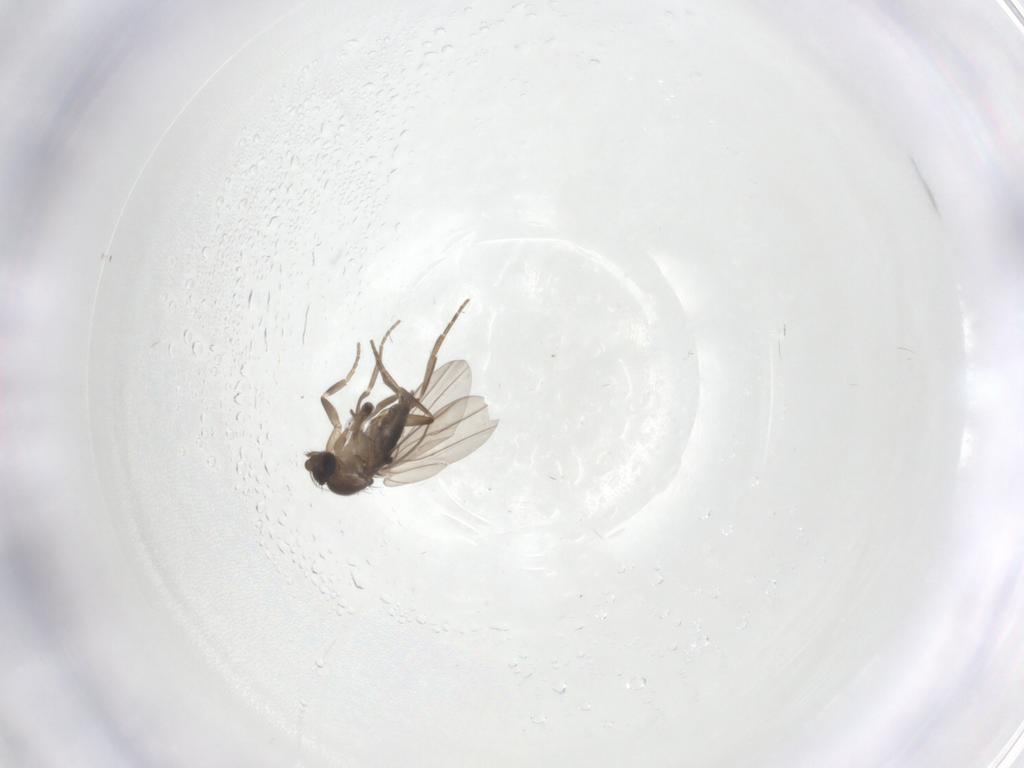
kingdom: Animalia
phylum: Arthropoda
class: Insecta
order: Diptera
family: Phoridae
